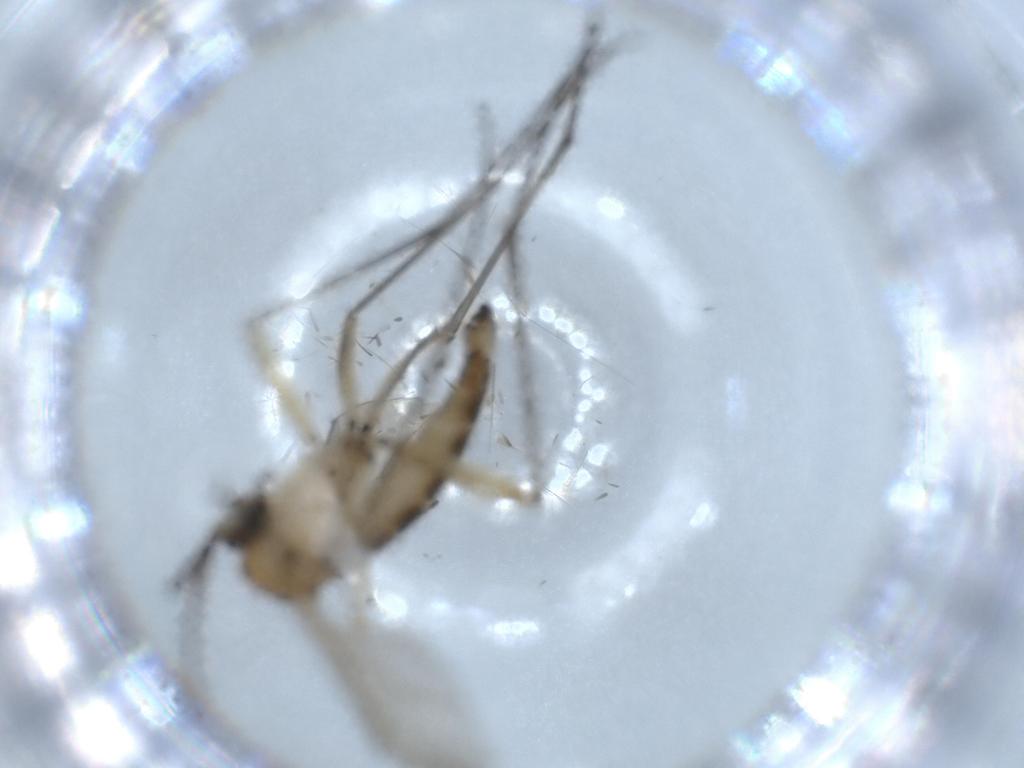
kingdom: Animalia
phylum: Arthropoda
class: Insecta
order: Diptera
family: Sciaridae
